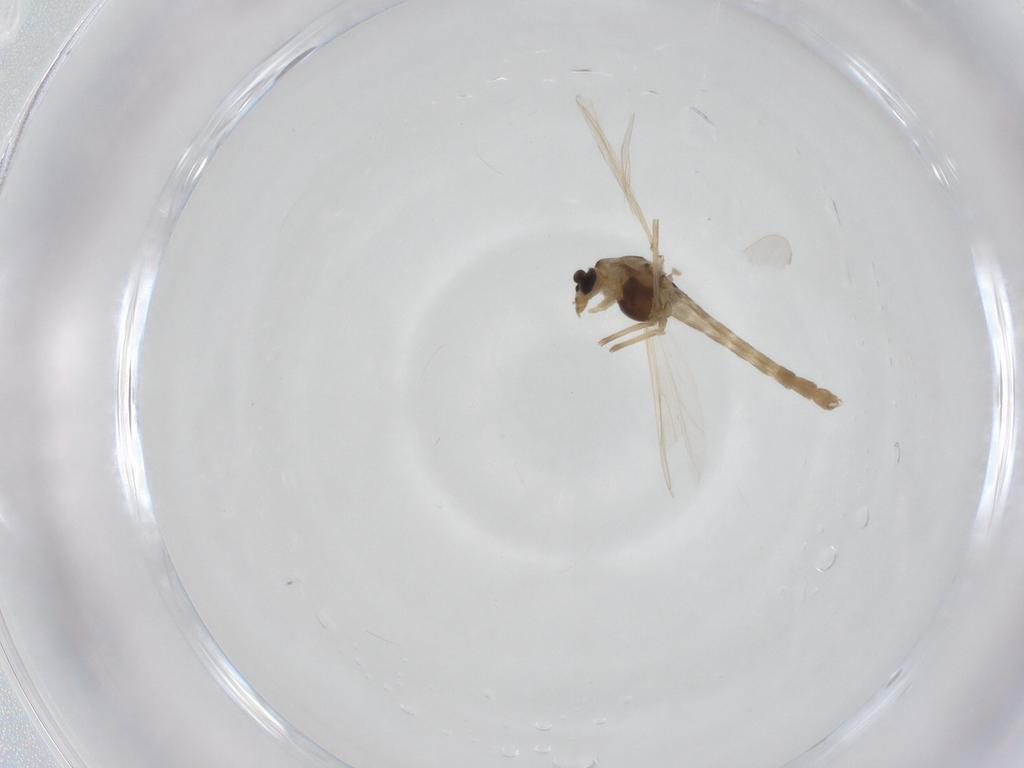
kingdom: Animalia
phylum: Arthropoda
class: Insecta
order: Diptera
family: Chironomidae
